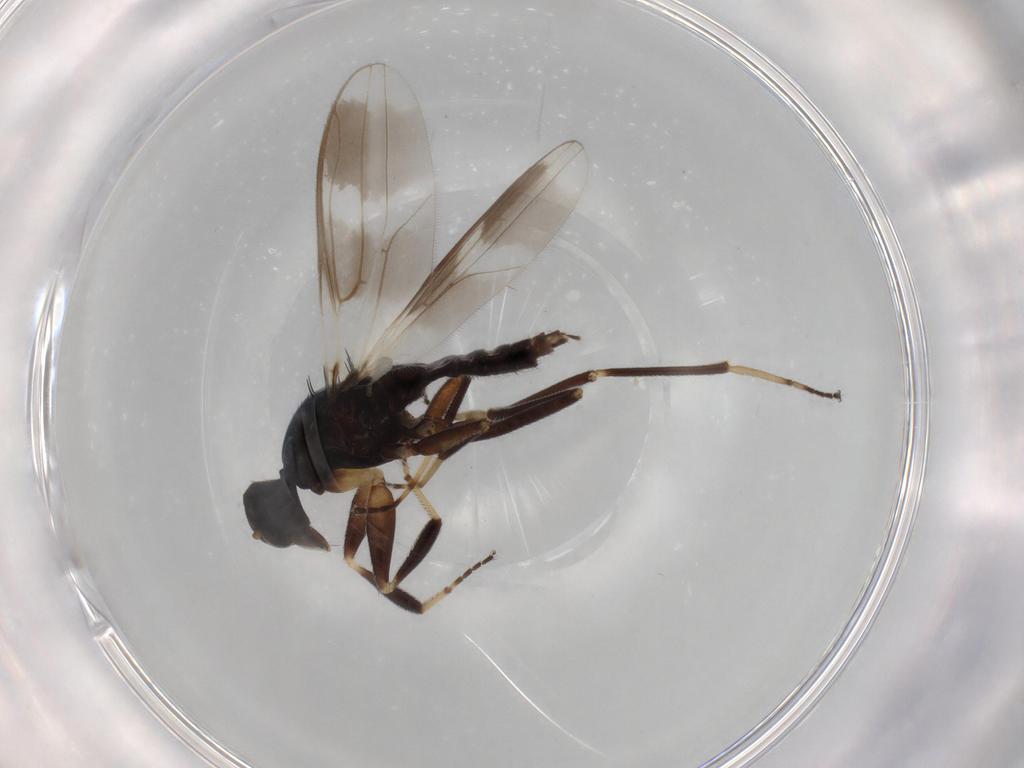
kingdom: Animalia
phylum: Arthropoda
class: Insecta
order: Diptera
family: Hybotidae
